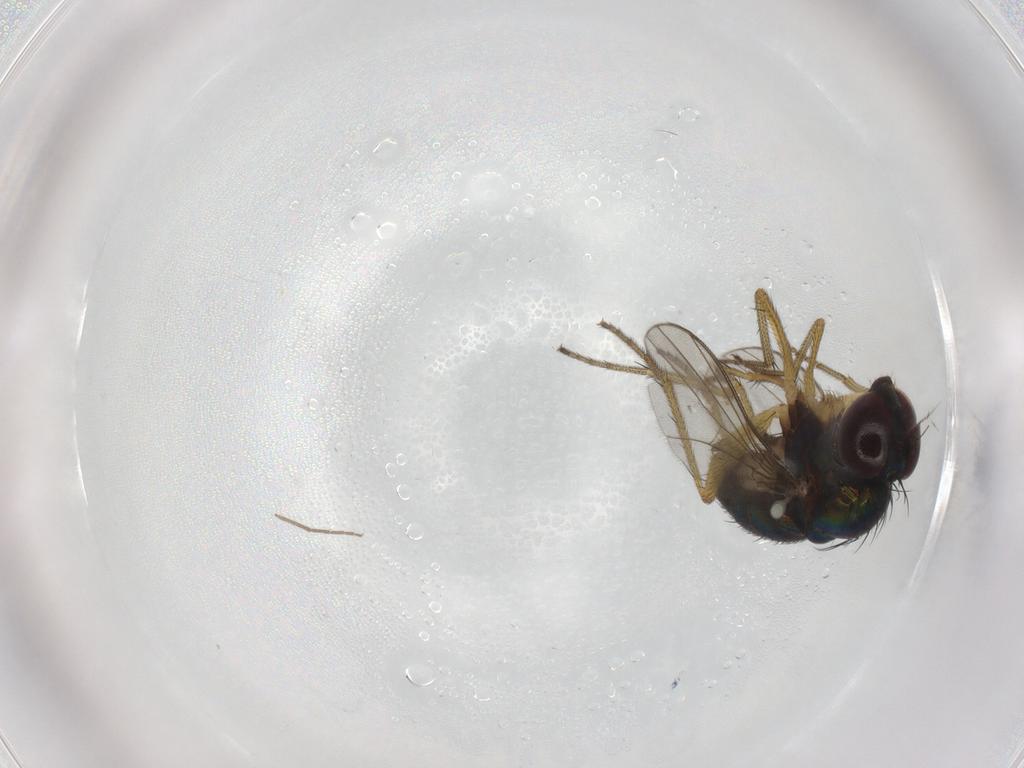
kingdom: Animalia
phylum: Arthropoda
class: Insecta
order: Diptera
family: Dolichopodidae
